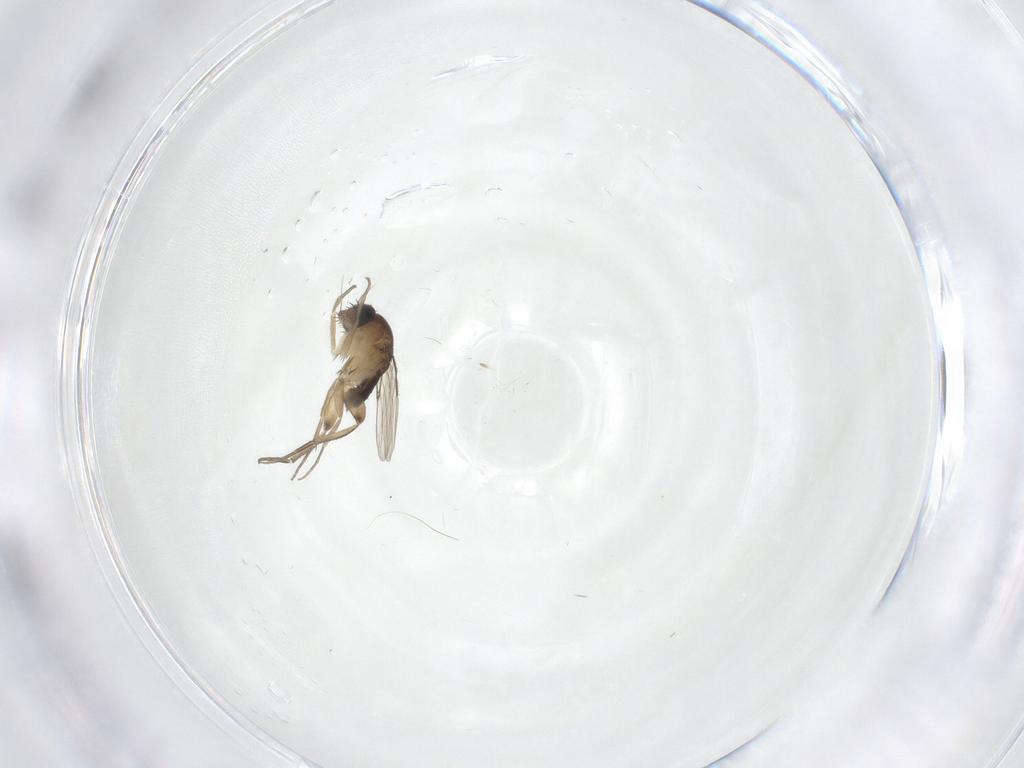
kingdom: Animalia
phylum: Arthropoda
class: Insecta
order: Diptera
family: Phoridae
